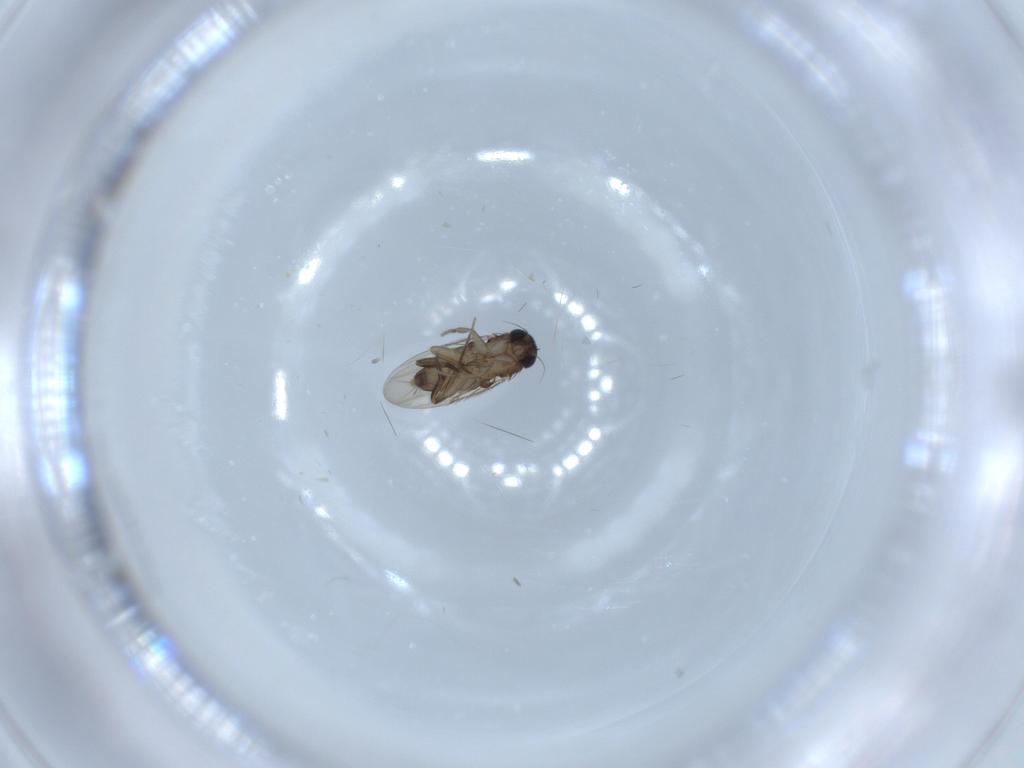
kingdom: Animalia
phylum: Arthropoda
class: Insecta
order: Diptera
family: Phoridae
